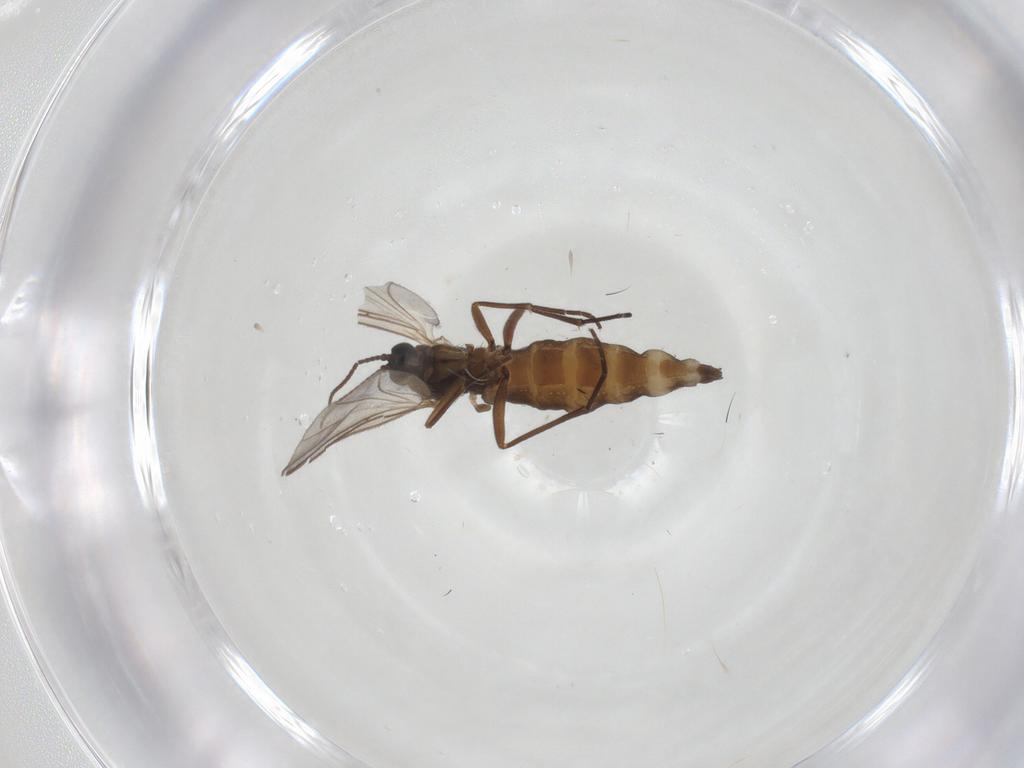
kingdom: Animalia
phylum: Arthropoda
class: Insecta
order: Diptera
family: Sciaridae
